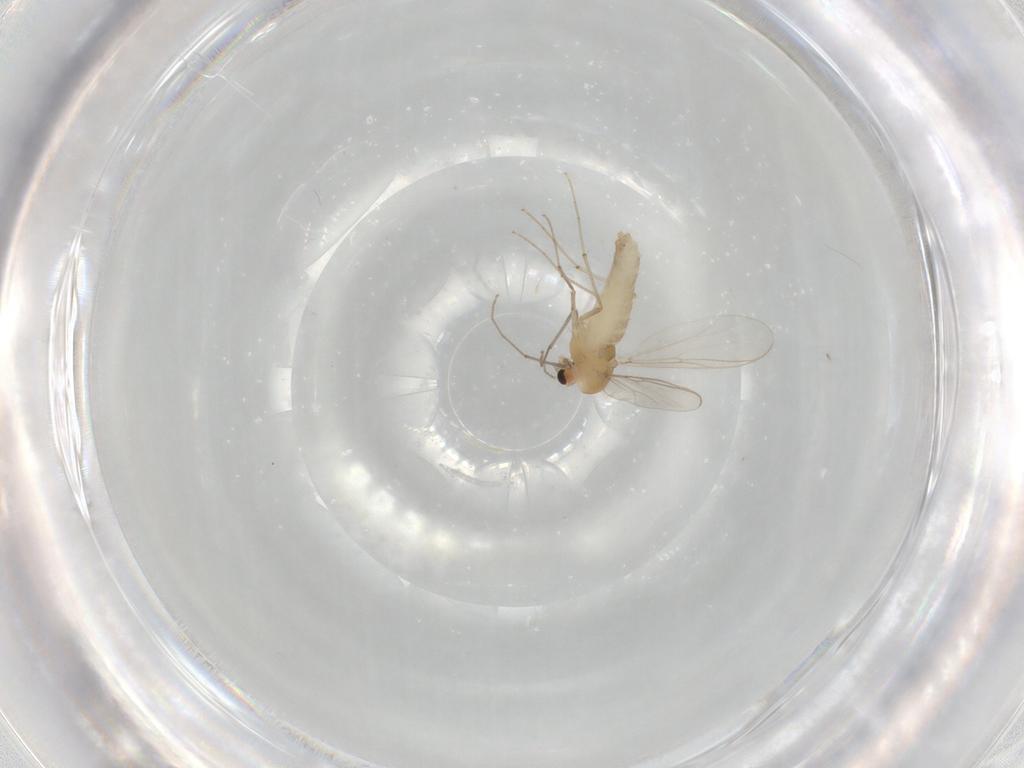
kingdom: Animalia
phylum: Arthropoda
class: Insecta
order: Diptera
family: Chironomidae
